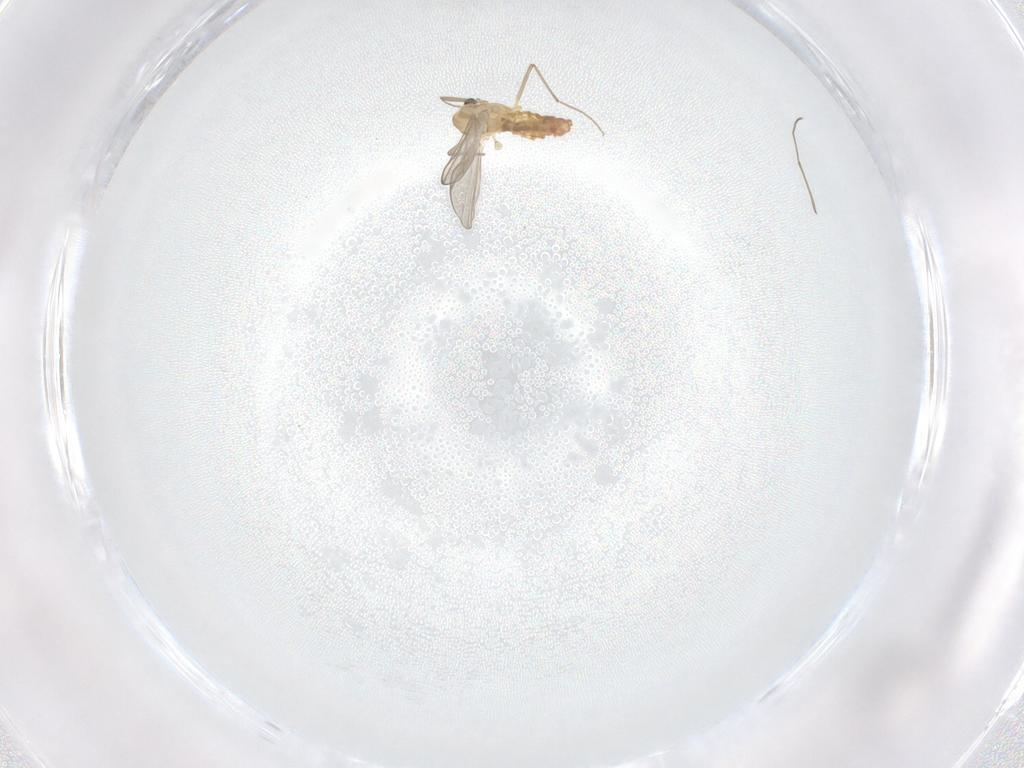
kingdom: Animalia
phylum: Arthropoda
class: Insecta
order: Diptera
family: Chironomidae
